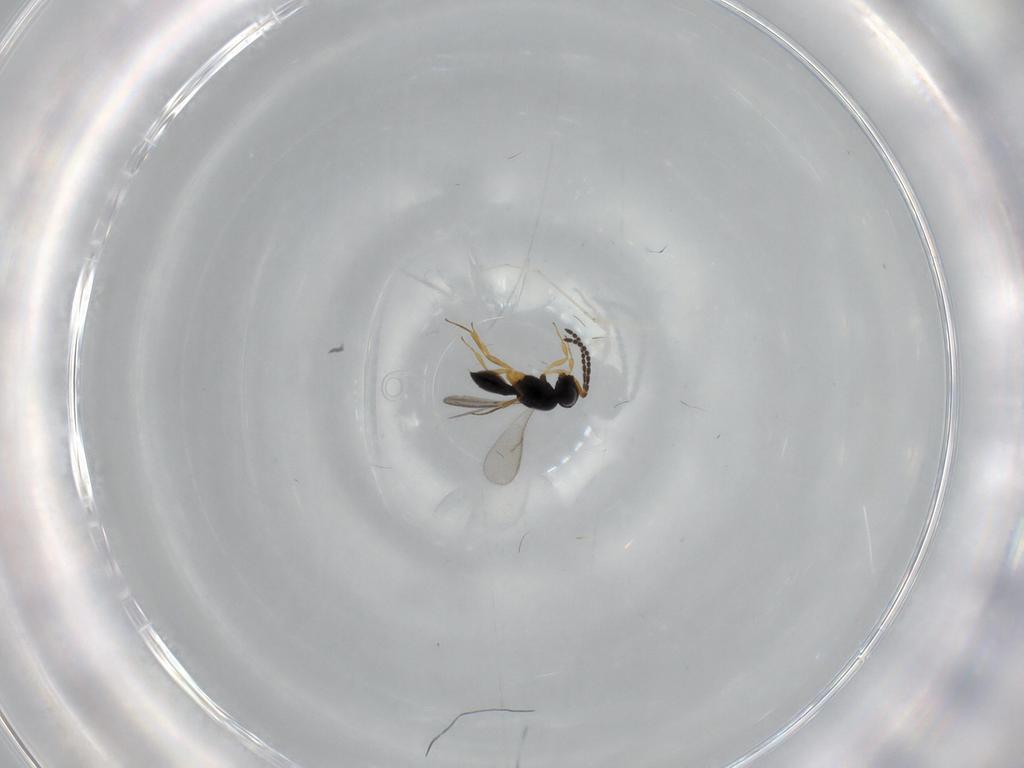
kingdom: Animalia
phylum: Arthropoda
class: Insecta
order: Hymenoptera
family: Scelionidae
